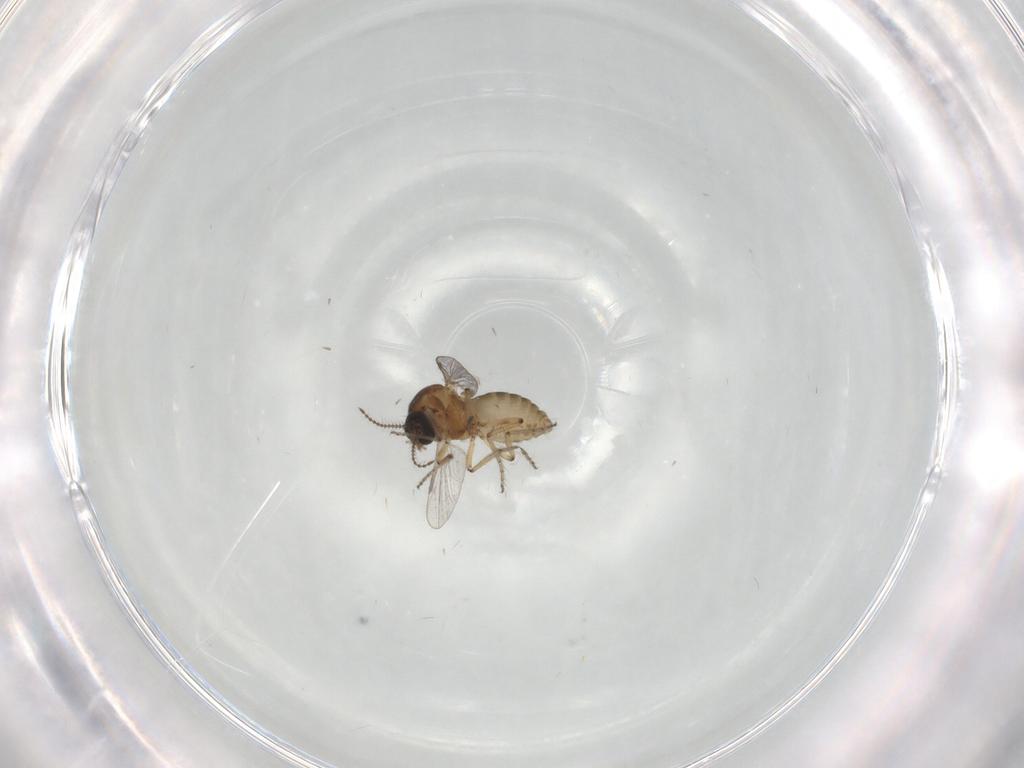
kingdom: Animalia
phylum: Arthropoda
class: Insecta
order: Diptera
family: Ceratopogonidae
